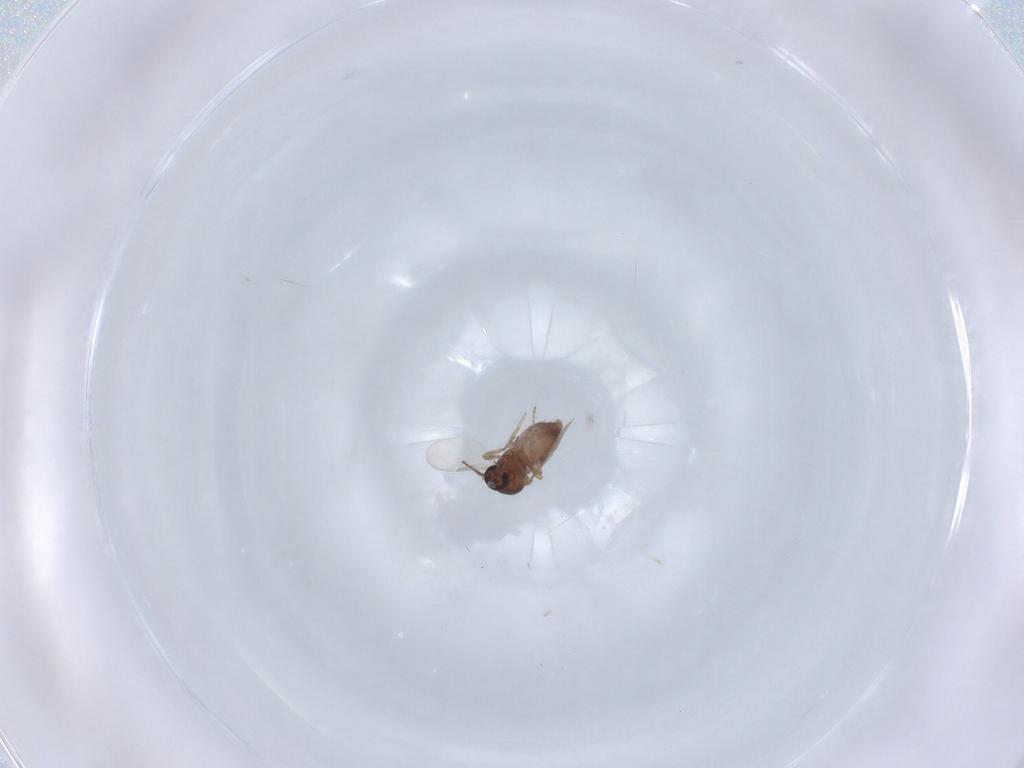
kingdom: Animalia
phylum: Arthropoda
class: Insecta
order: Diptera
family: Ceratopogonidae
